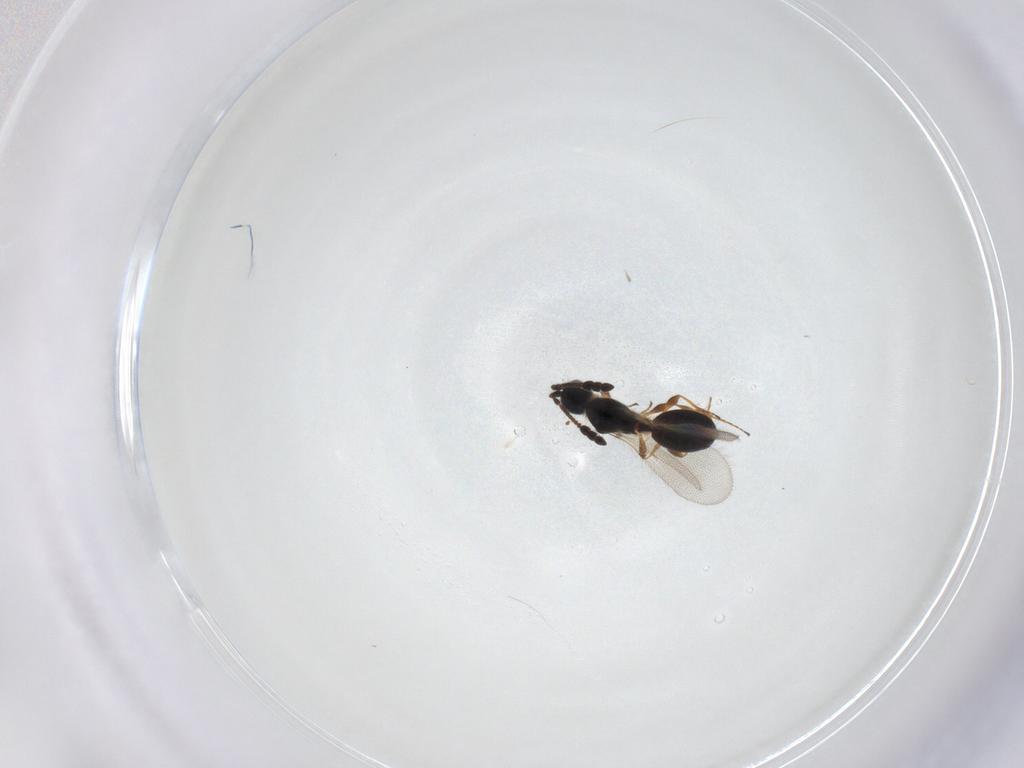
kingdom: Animalia
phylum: Arthropoda
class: Insecta
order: Hymenoptera
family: Diapriidae
